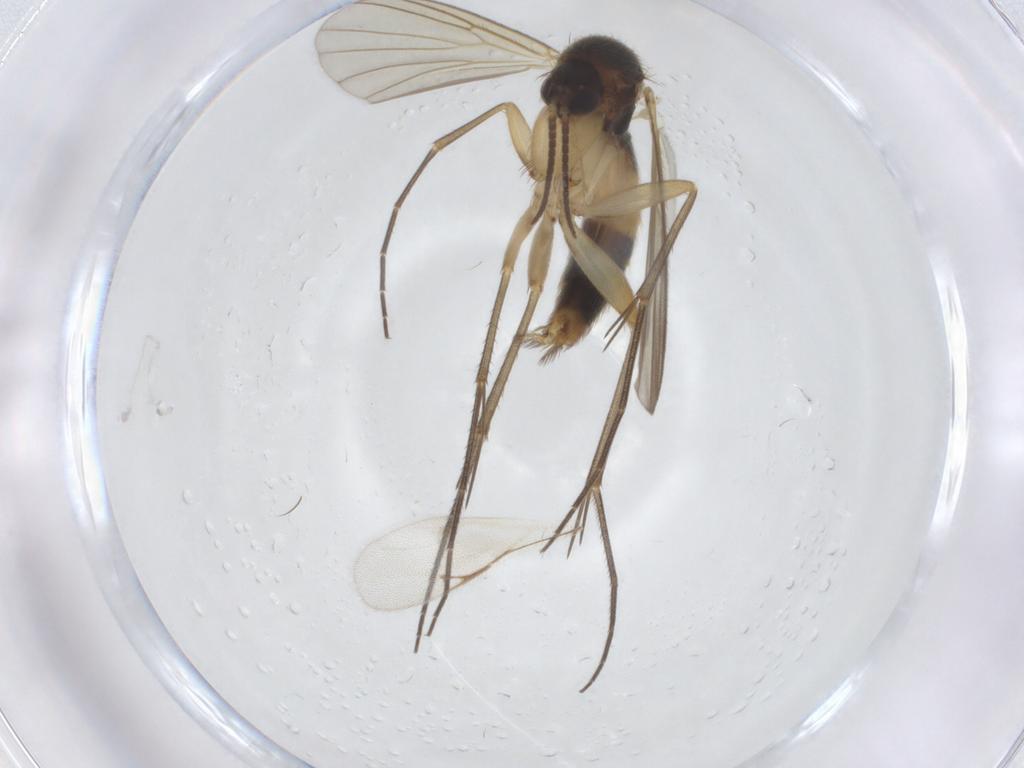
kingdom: Animalia
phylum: Arthropoda
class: Insecta
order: Diptera
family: Mycetophilidae
